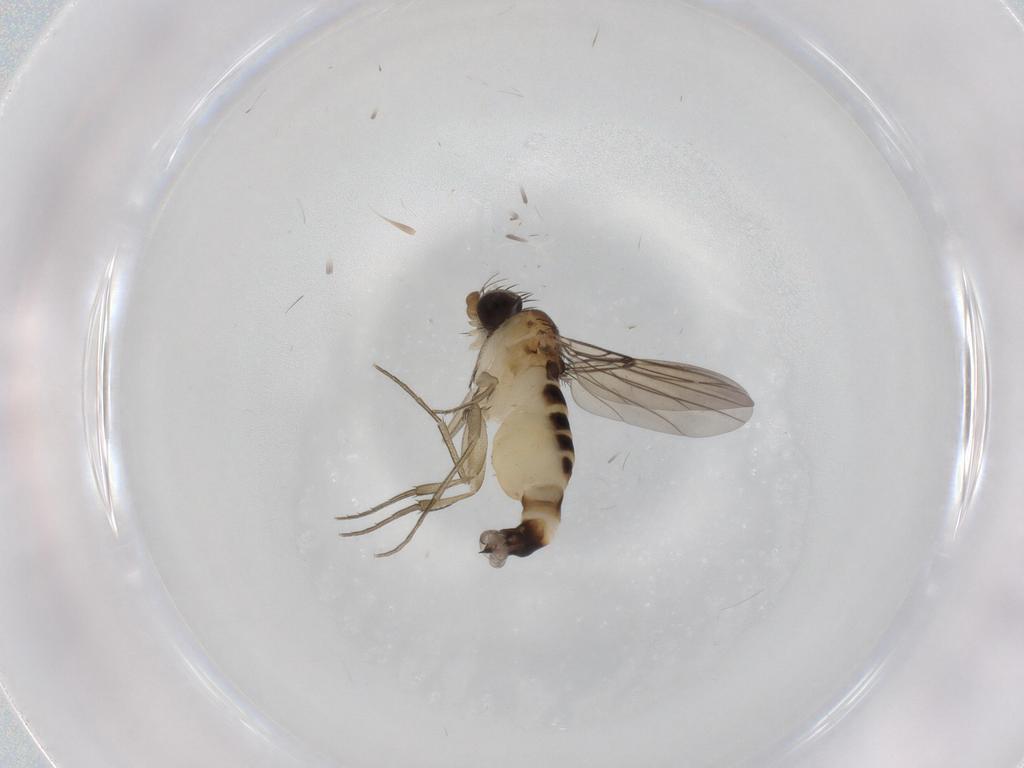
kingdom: Animalia
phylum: Arthropoda
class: Insecta
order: Diptera
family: Phoridae
